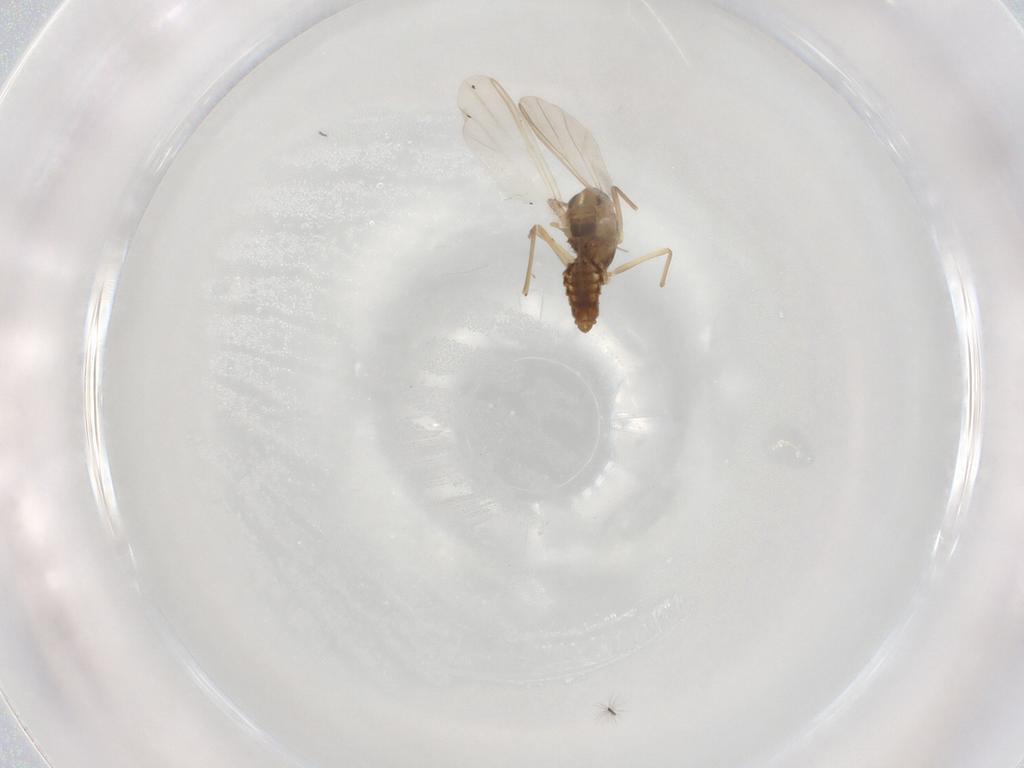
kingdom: Animalia
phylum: Arthropoda
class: Insecta
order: Diptera
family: Chironomidae
